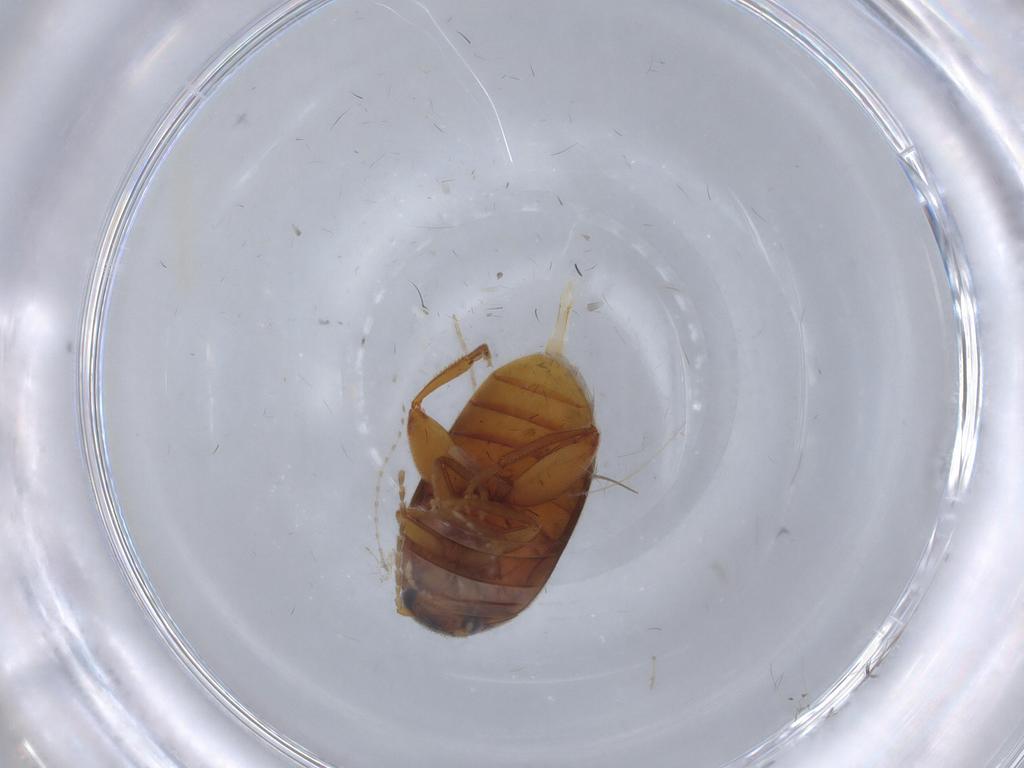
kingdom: Animalia
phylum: Arthropoda
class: Insecta
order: Coleoptera
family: Scirtidae
